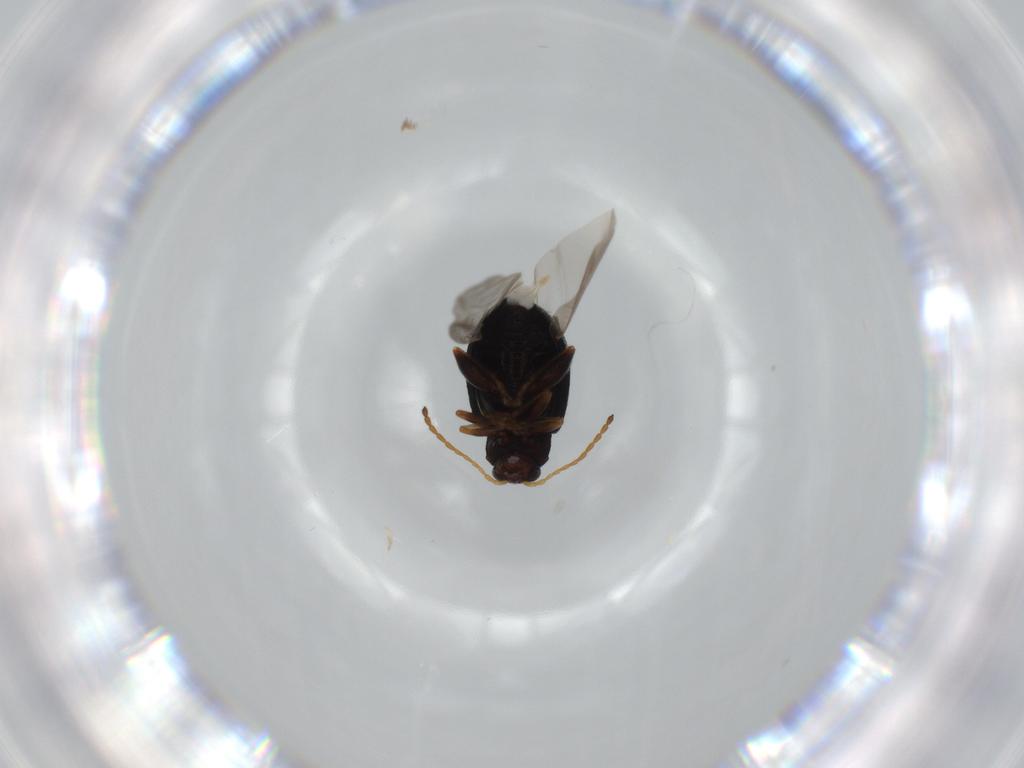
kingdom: Animalia
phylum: Arthropoda
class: Insecta
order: Coleoptera
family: Chrysomelidae
